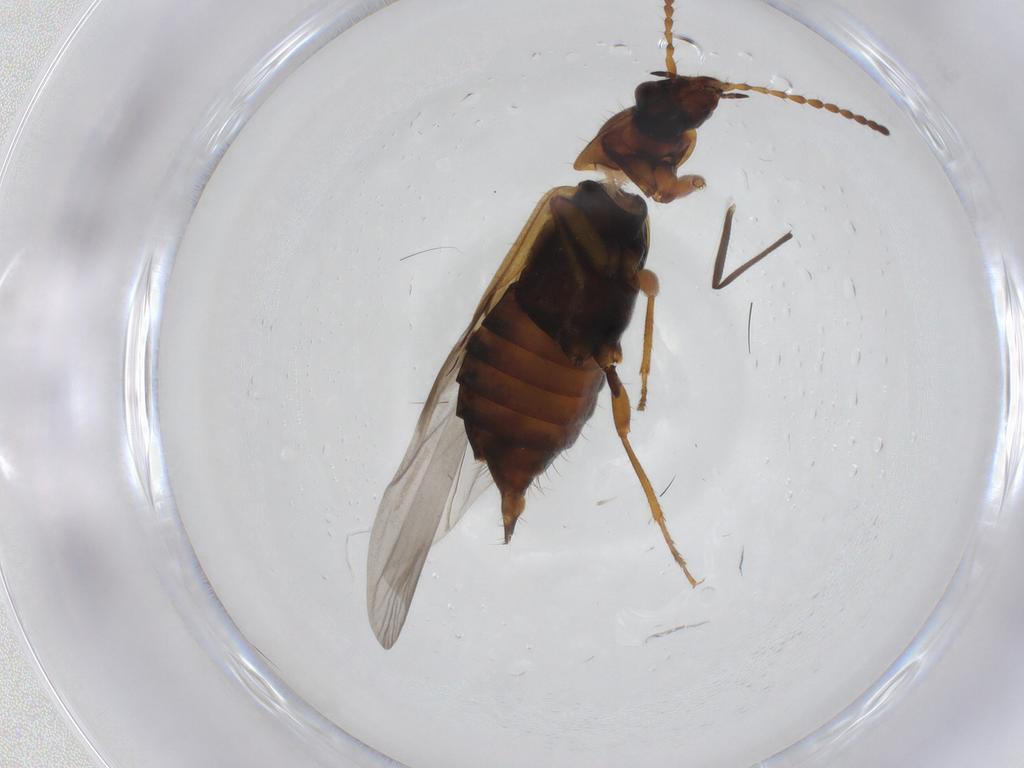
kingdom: Animalia
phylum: Arthropoda
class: Insecta
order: Coleoptera
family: Staphylinidae
